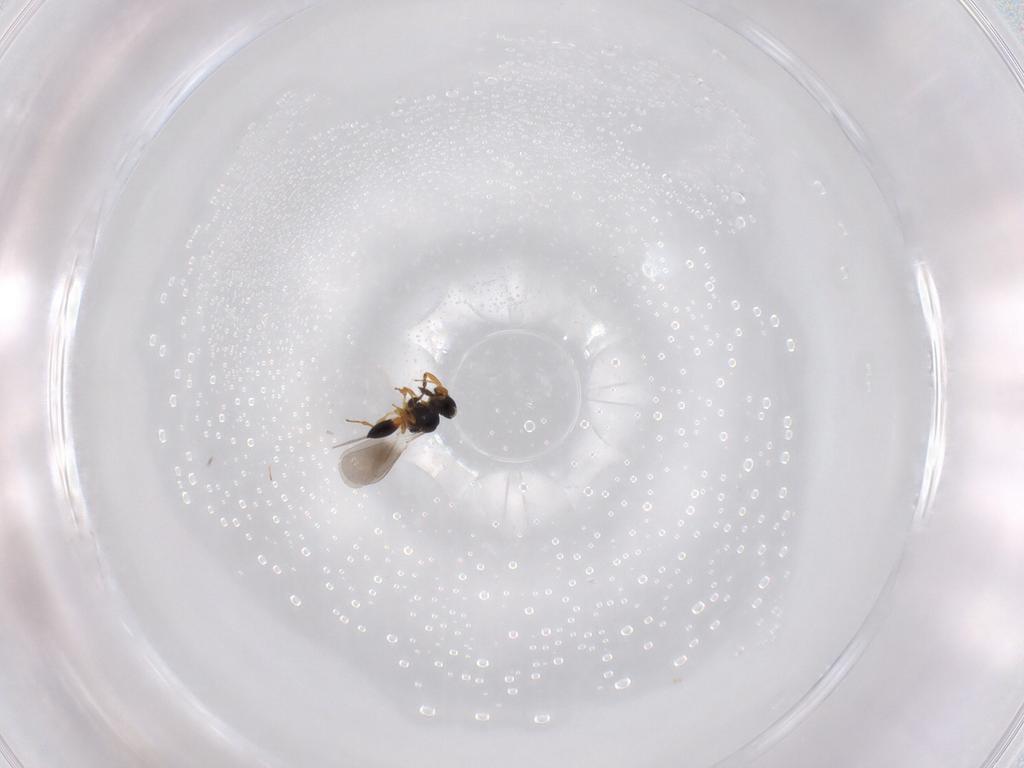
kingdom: Animalia
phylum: Arthropoda
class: Insecta
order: Hymenoptera
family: Platygastridae
